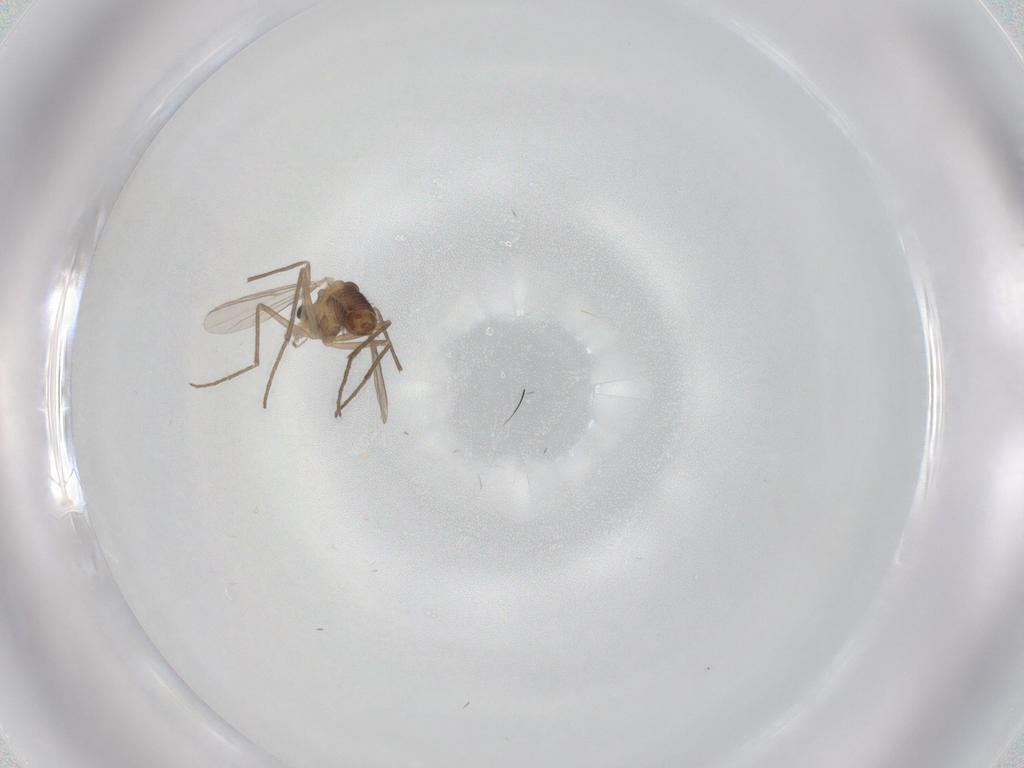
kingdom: Animalia
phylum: Arthropoda
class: Insecta
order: Diptera
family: Chironomidae
